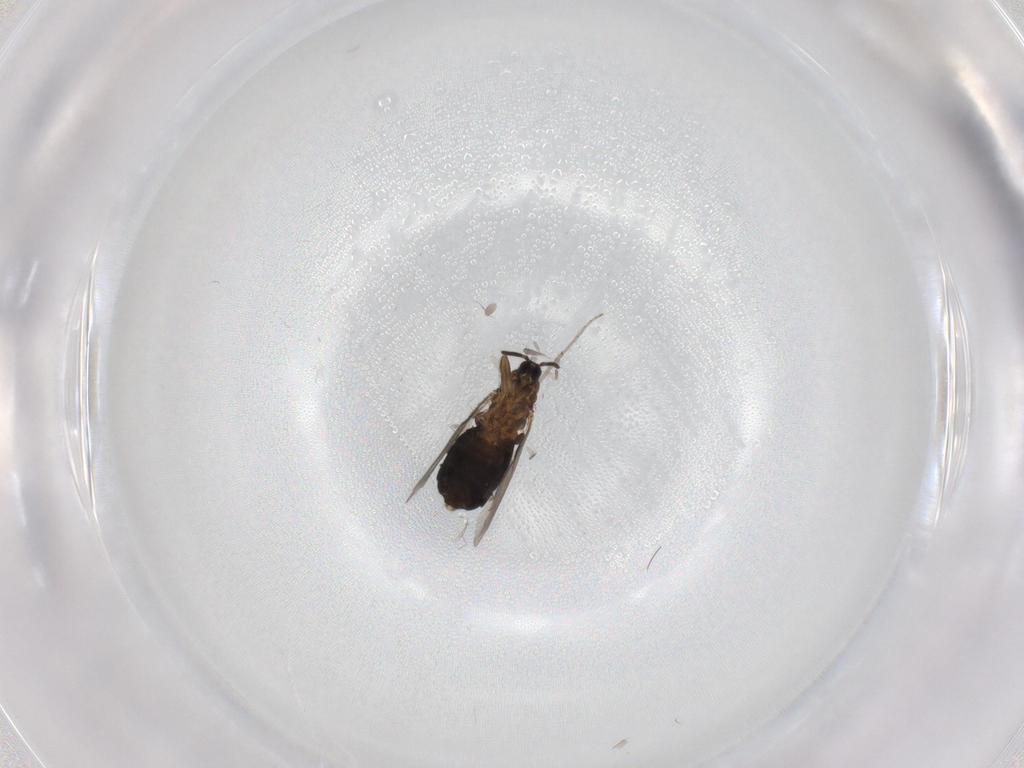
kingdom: Animalia
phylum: Arthropoda
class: Insecta
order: Diptera
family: Scatopsidae
